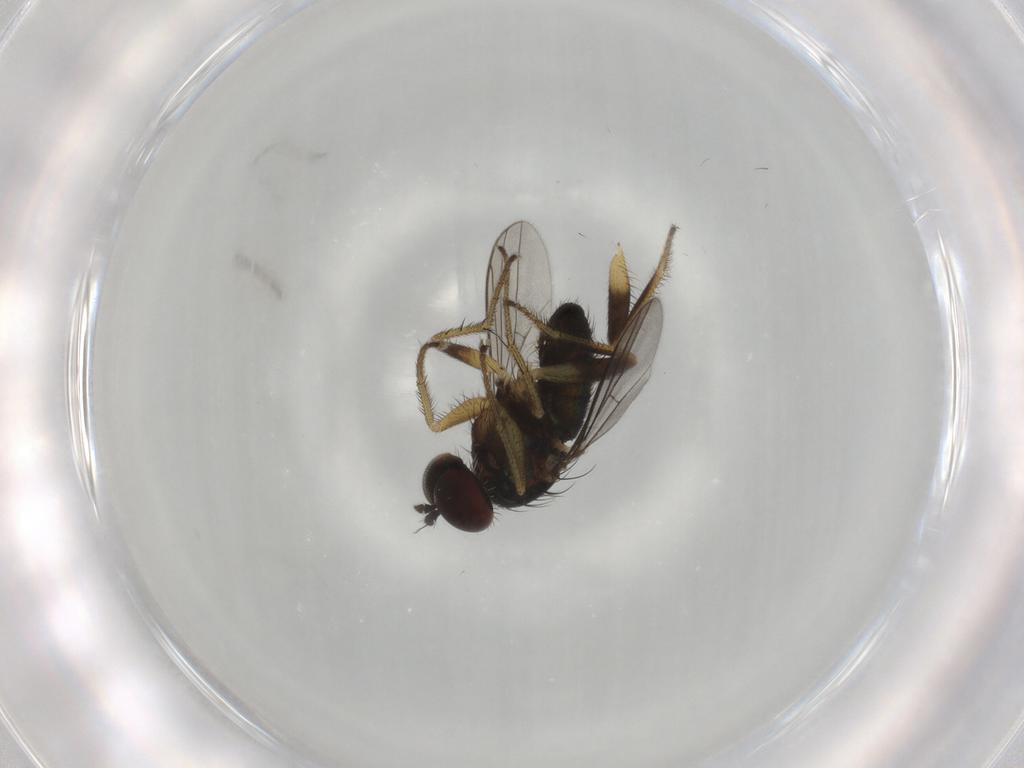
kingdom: Animalia
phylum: Arthropoda
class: Insecta
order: Diptera
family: Dolichopodidae
